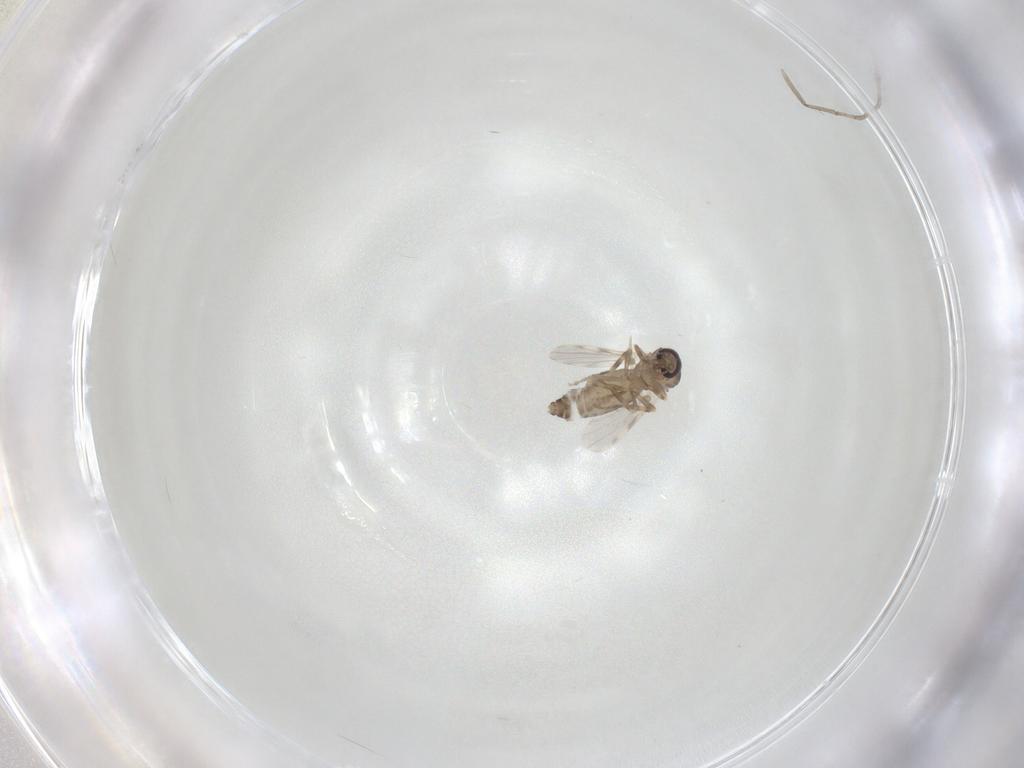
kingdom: Animalia
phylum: Arthropoda
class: Insecta
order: Diptera
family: Ceratopogonidae
